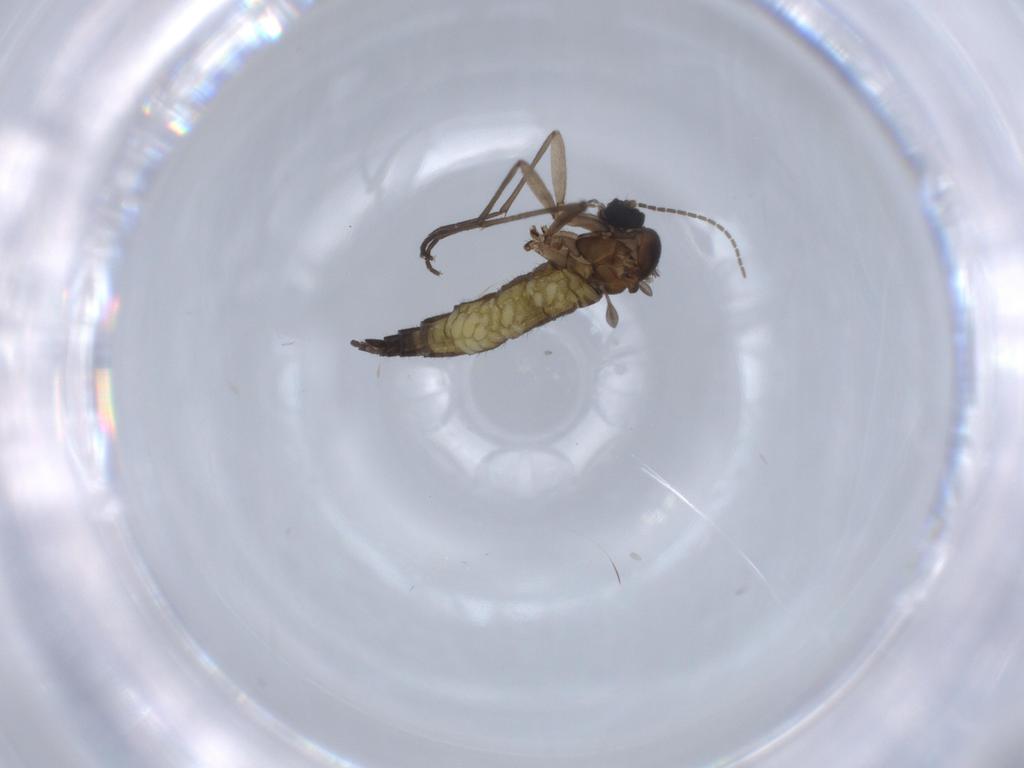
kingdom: Animalia
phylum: Arthropoda
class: Insecta
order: Diptera
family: Sciaridae
